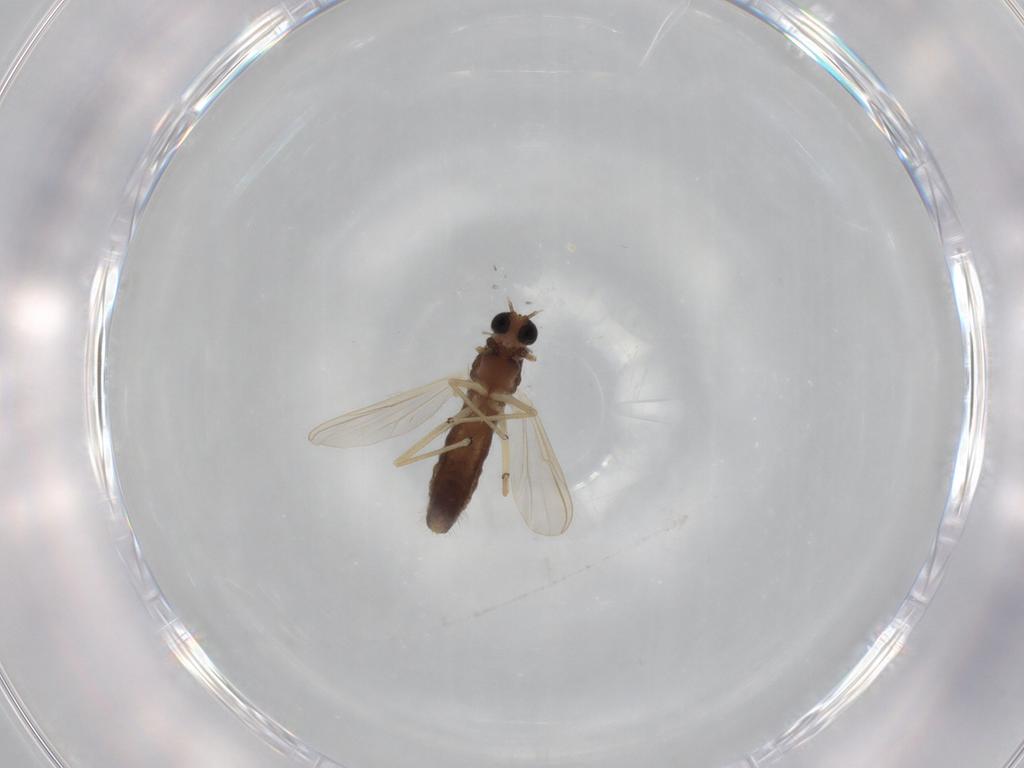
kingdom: Animalia
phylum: Arthropoda
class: Insecta
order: Diptera
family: Chironomidae
